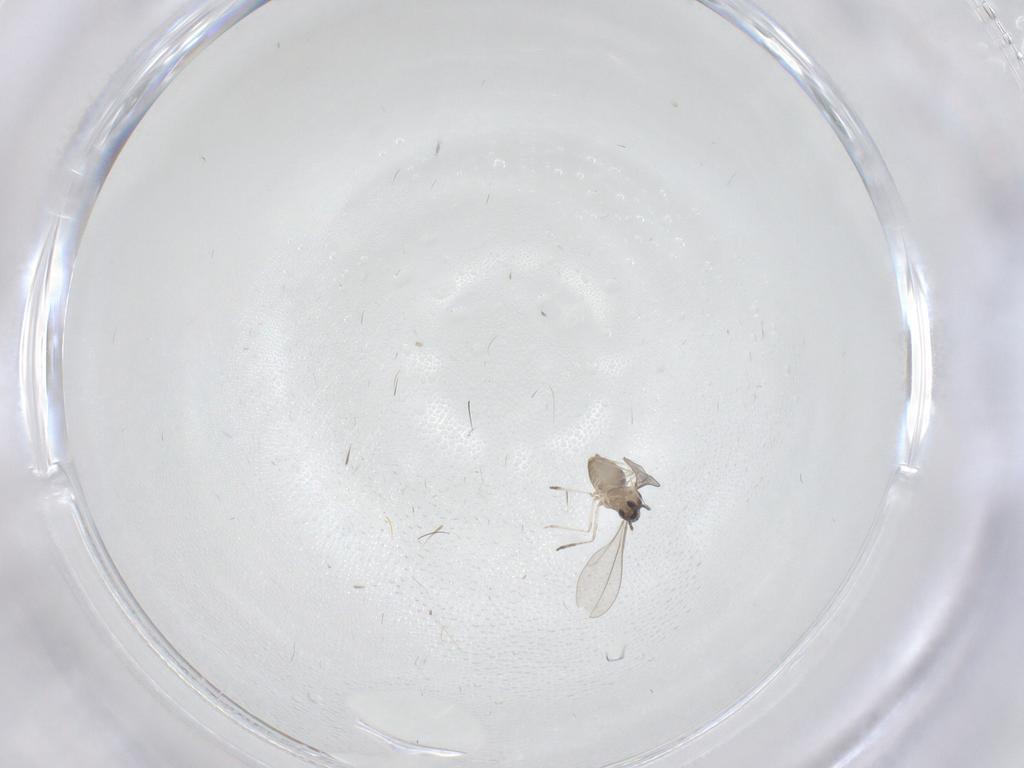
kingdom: Animalia
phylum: Arthropoda
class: Insecta
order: Diptera
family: Cecidomyiidae
